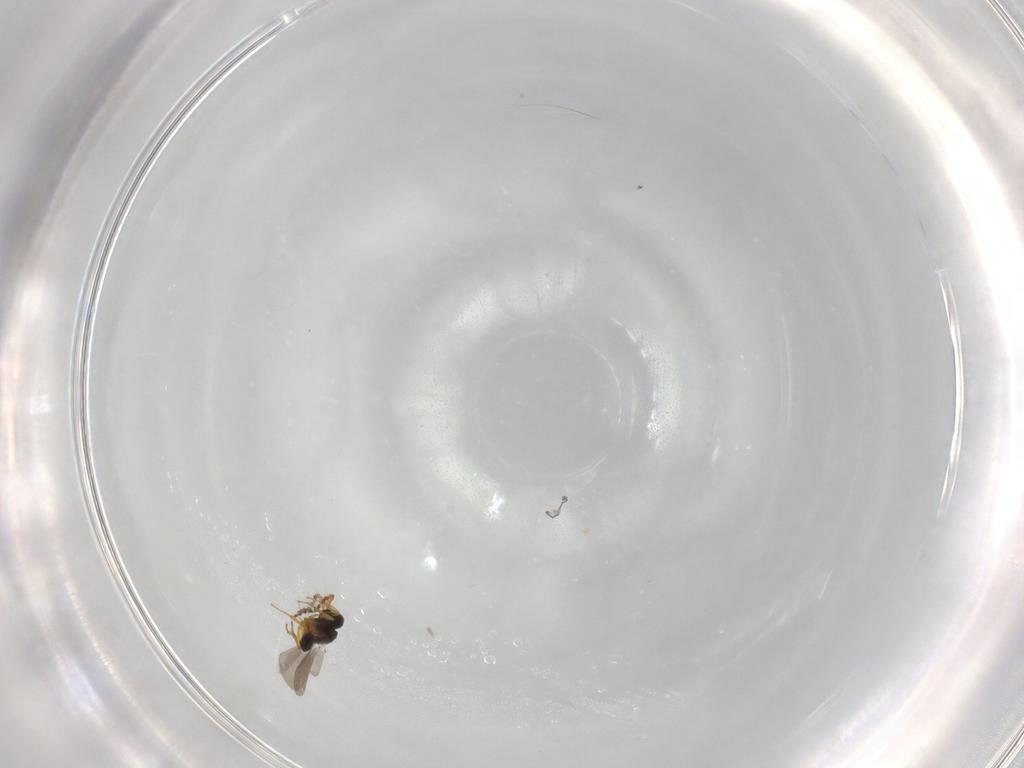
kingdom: Animalia
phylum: Arthropoda
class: Insecta
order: Hymenoptera
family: Platygastridae
